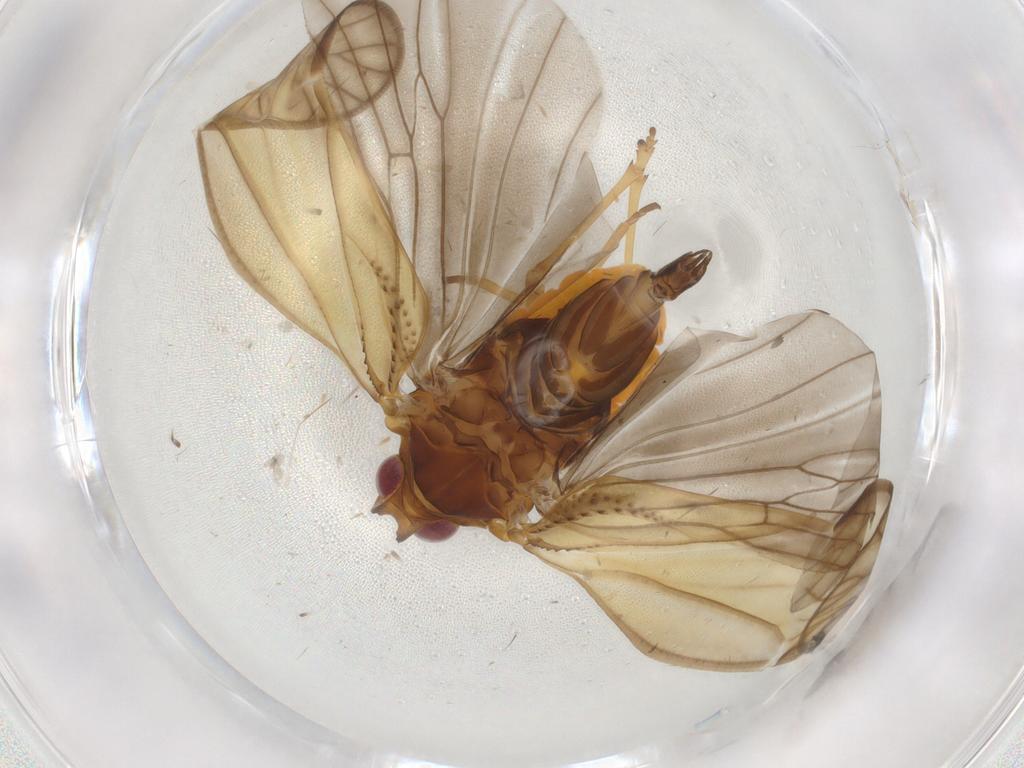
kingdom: Animalia
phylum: Arthropoda
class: Insecta
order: Hemiptera
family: Meenoplidae
